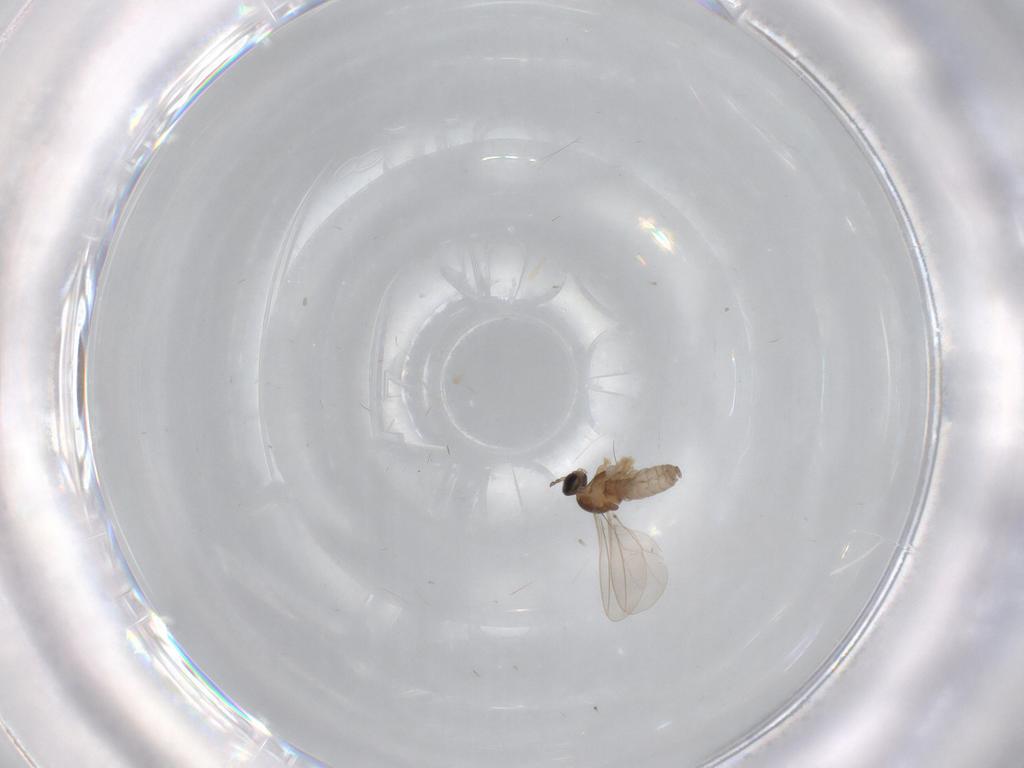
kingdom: Animalia
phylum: Arthropoda
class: Insecta
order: Diptera
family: Cecidomyiidae
